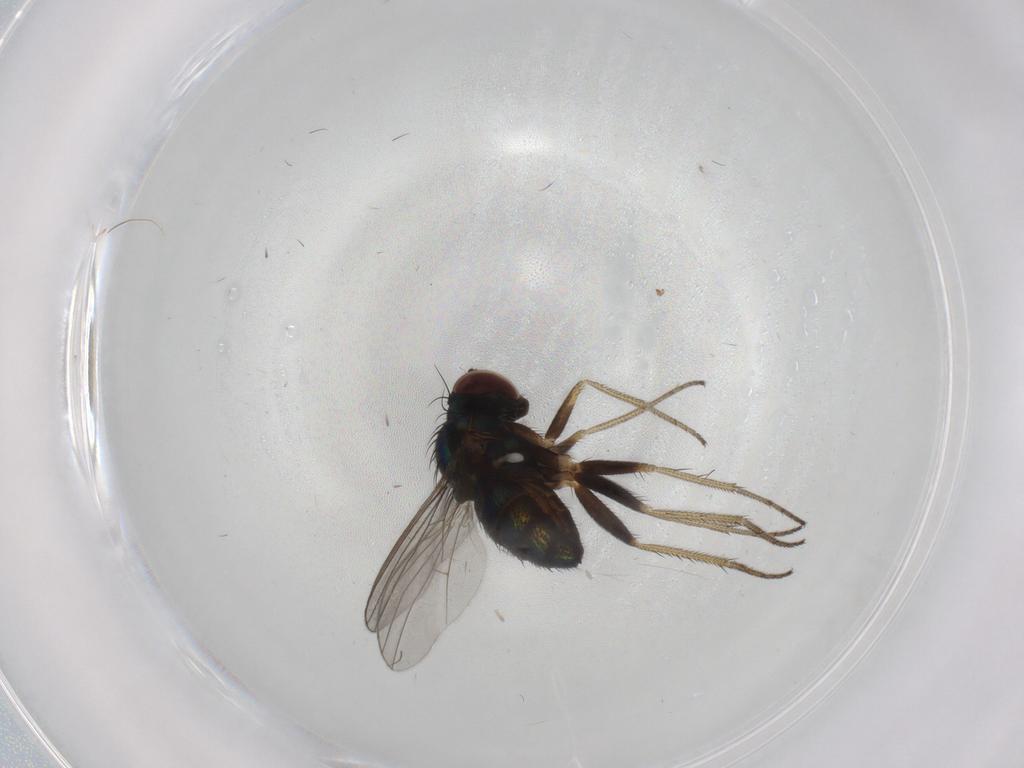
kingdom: Animalia
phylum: Arthropoda
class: Insecta
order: Diptera
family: Dolichopodidae
